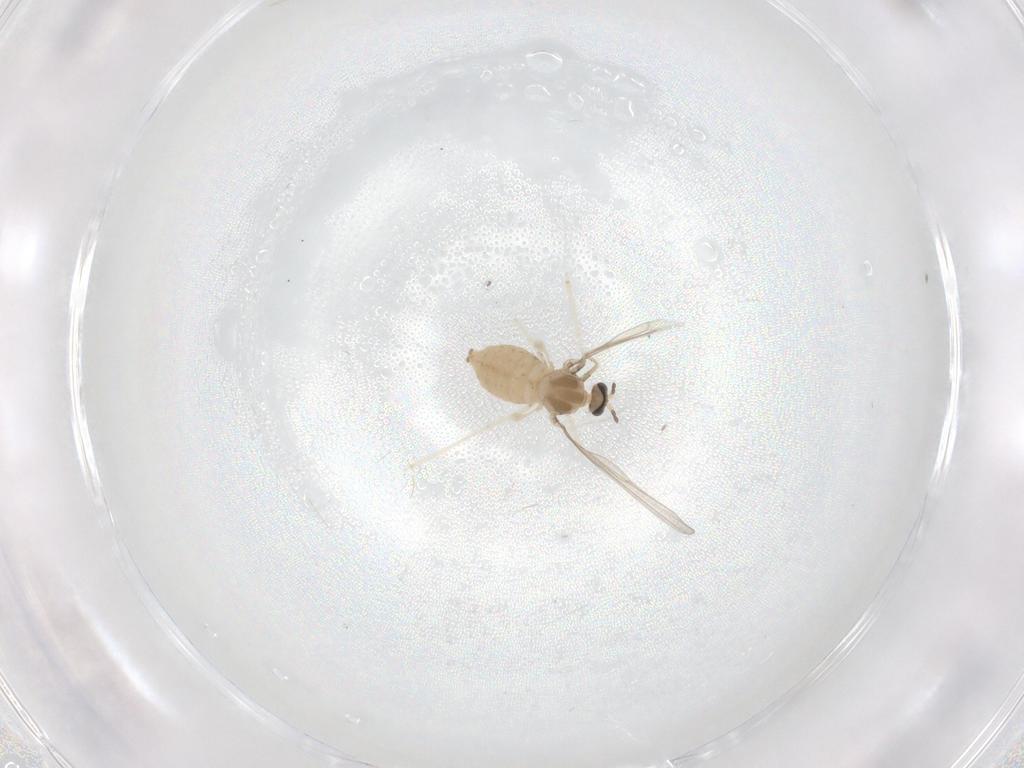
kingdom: Animalia
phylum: Arthropoda
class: Insecta
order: Diptera
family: Cecidomyiidae
